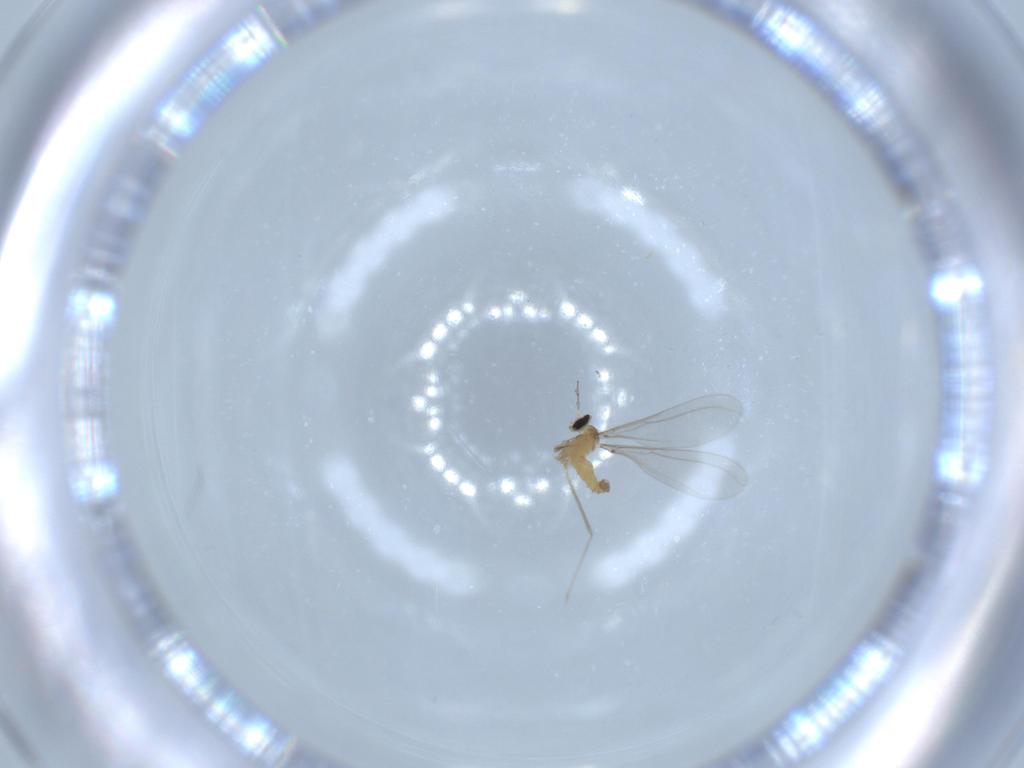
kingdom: Animalia
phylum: Arthropoda
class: Insecta
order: Diptera
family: Cecidomyiidae
